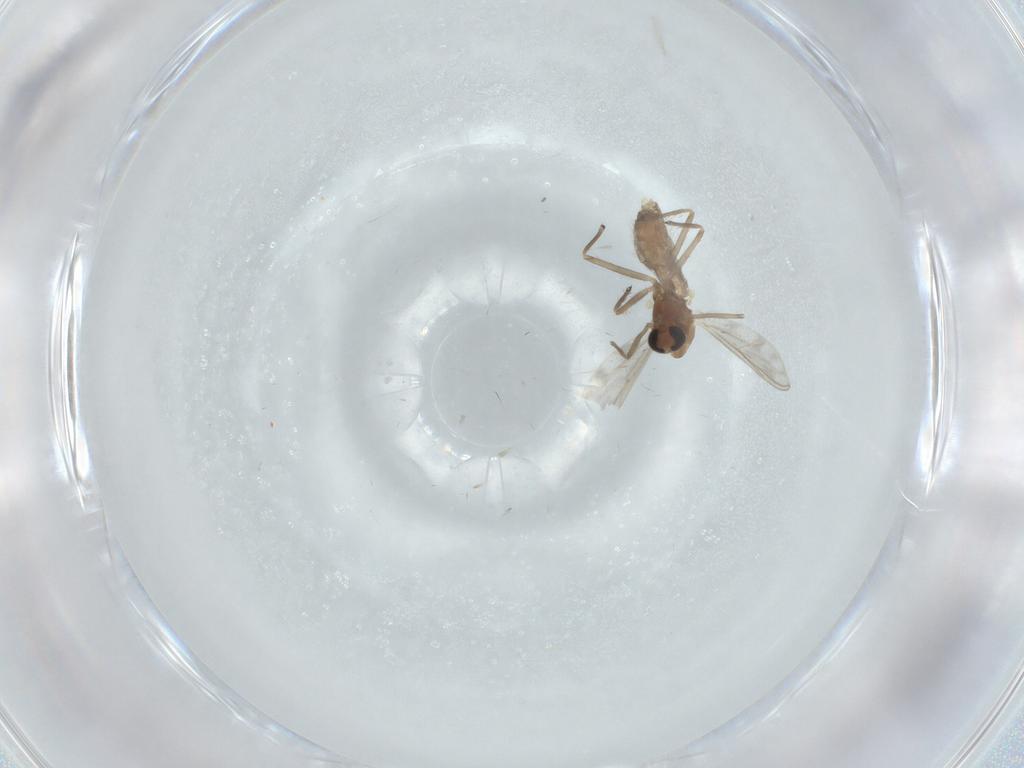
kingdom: Animalia
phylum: Arthropoda
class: Insecta
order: Diptera
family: Chironomidae
